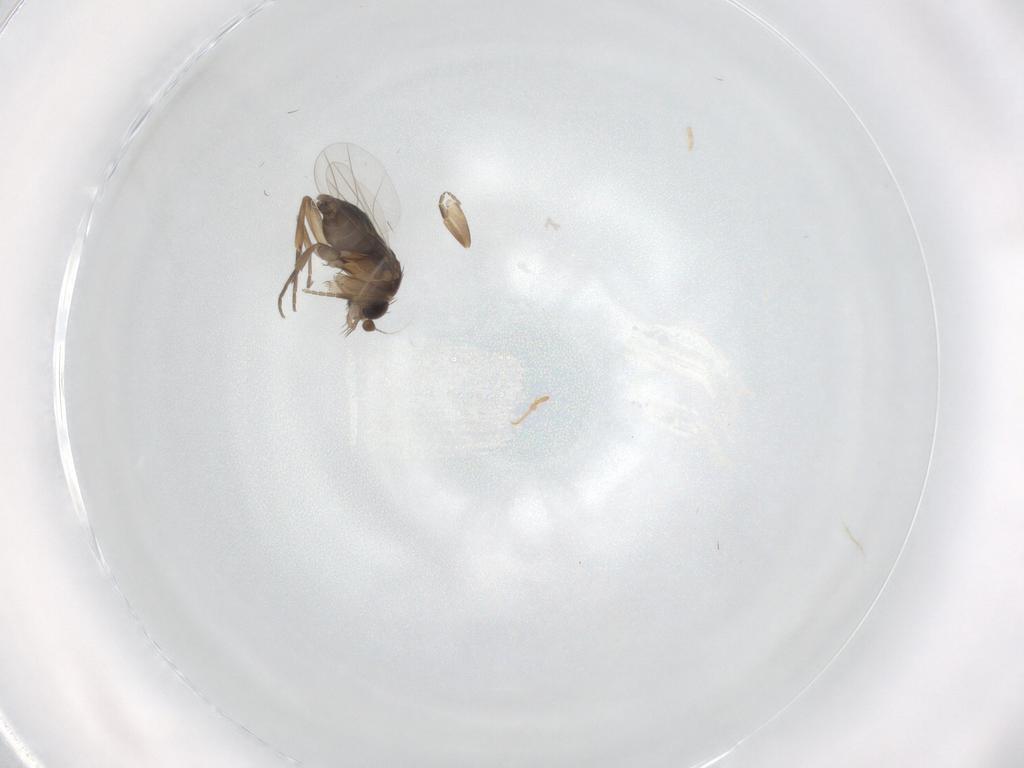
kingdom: Animalia
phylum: Arthropoda
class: Insecta
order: Diptera
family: Phoridae
